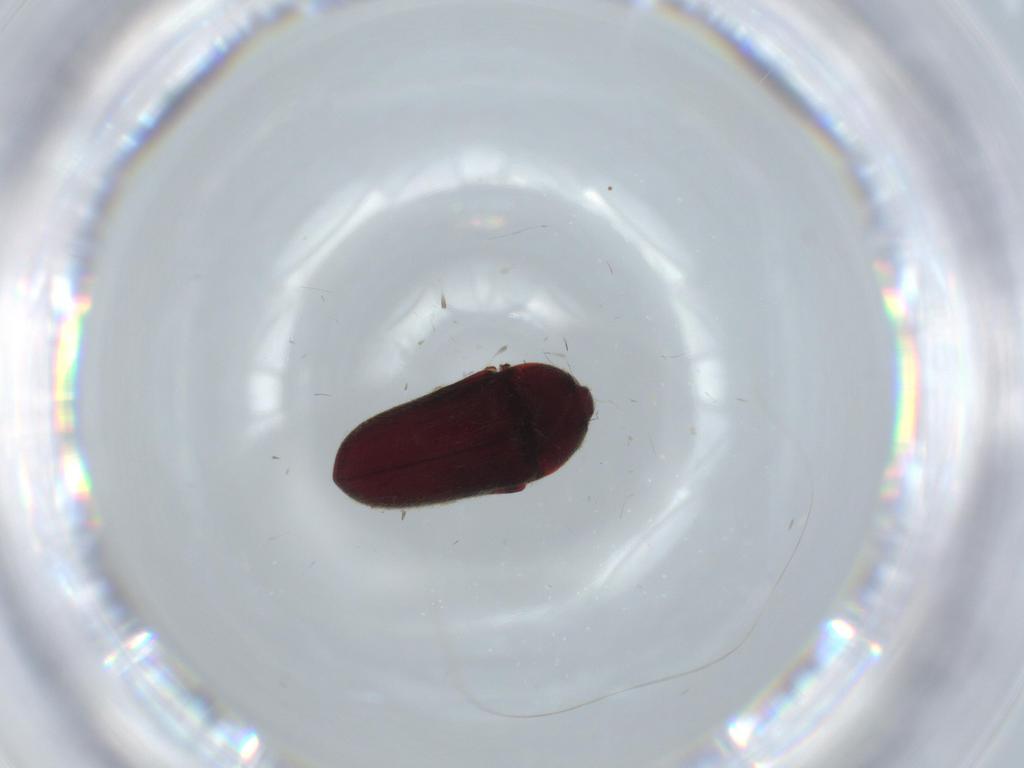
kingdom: Animalia
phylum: Arthropoda
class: Insecta
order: Coleoptera
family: Throscidae
